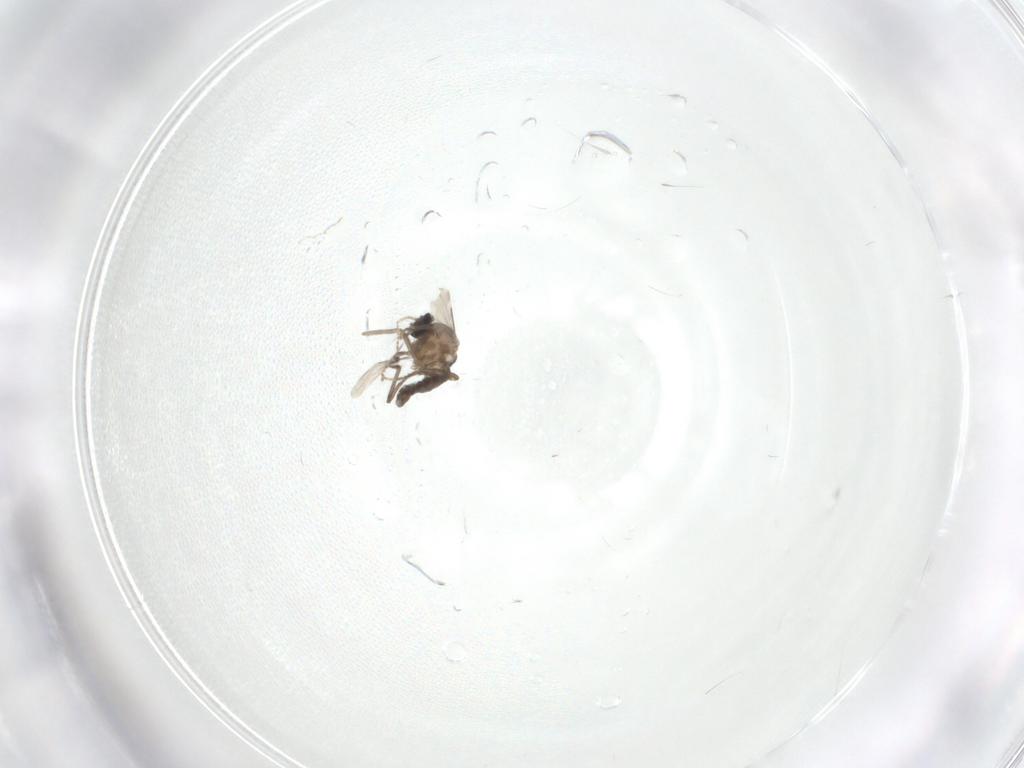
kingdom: Animalia
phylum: Arthropoda
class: Insecta
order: Diptera
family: Ceratopogonidae
